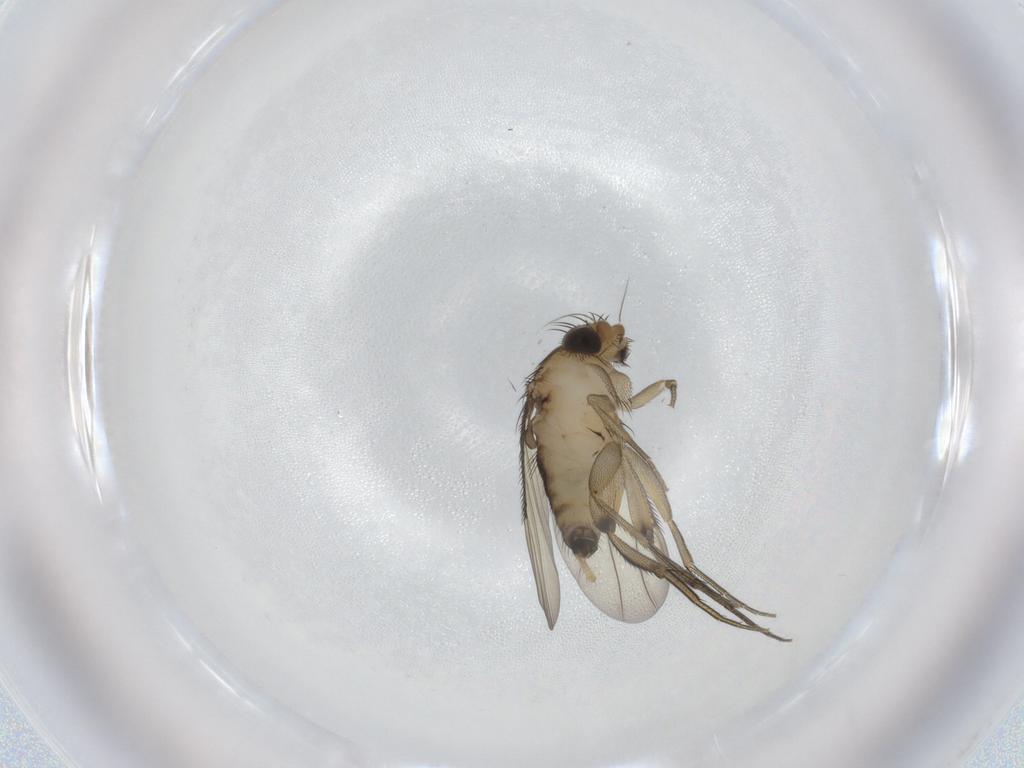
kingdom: Animalia
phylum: Arthropoda
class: Insecta
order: Diptera
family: Phoridae
